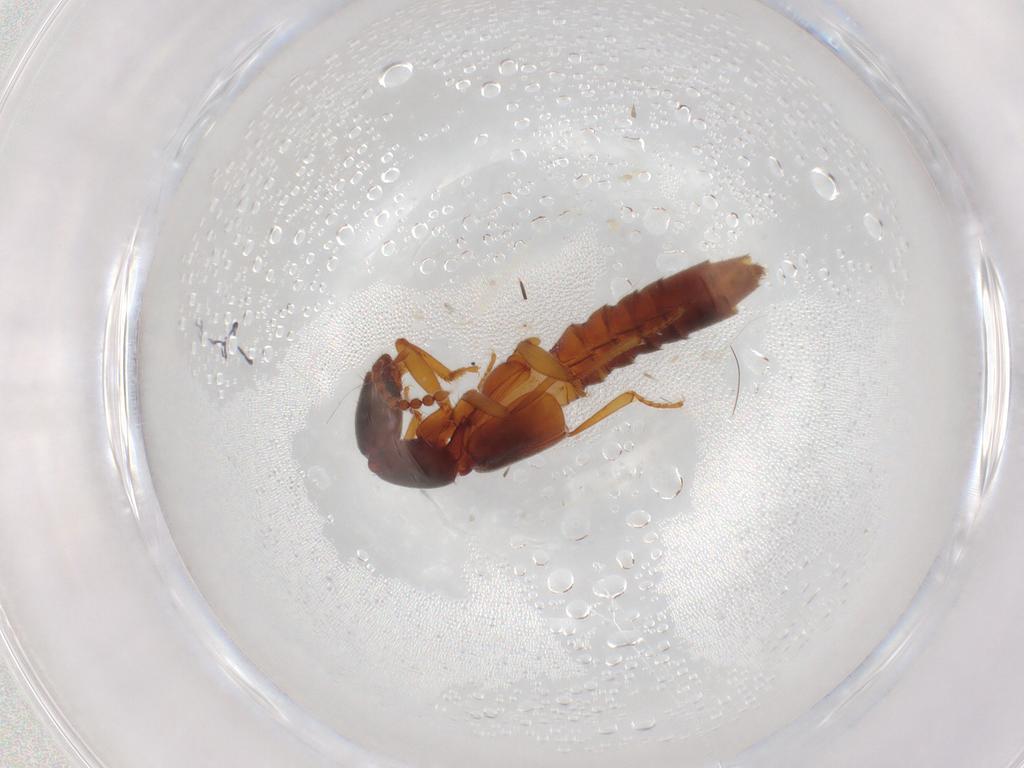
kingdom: Animalia
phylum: Arthropoda
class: Insecta
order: Coleoptera
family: Staphylinidae
